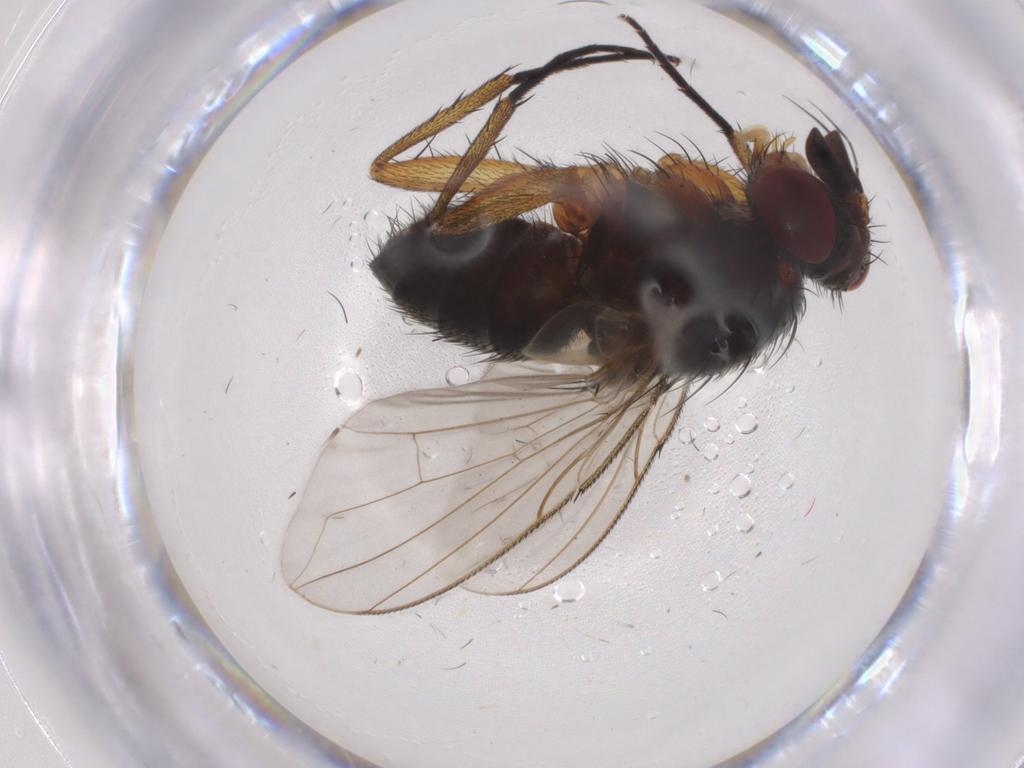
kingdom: Animalia
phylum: Arthropoda
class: Insecta
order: Diptera
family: Anthomyiidae
